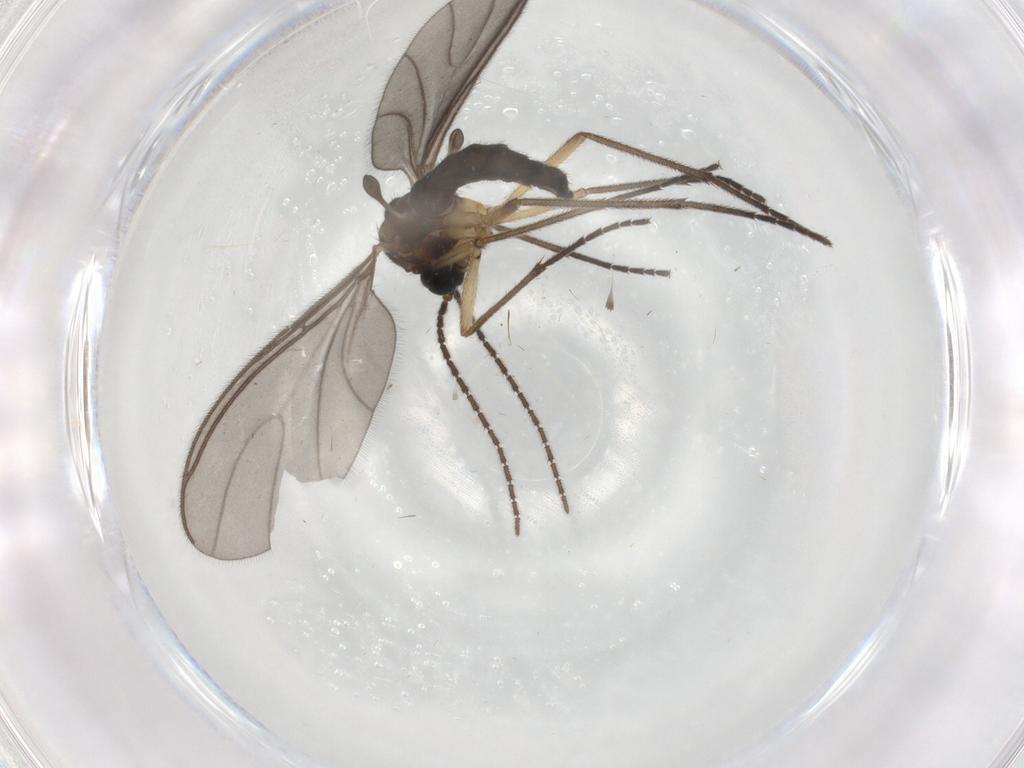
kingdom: Animalia
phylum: Arthropoda
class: Insecta
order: Diptera
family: Sciaridae
